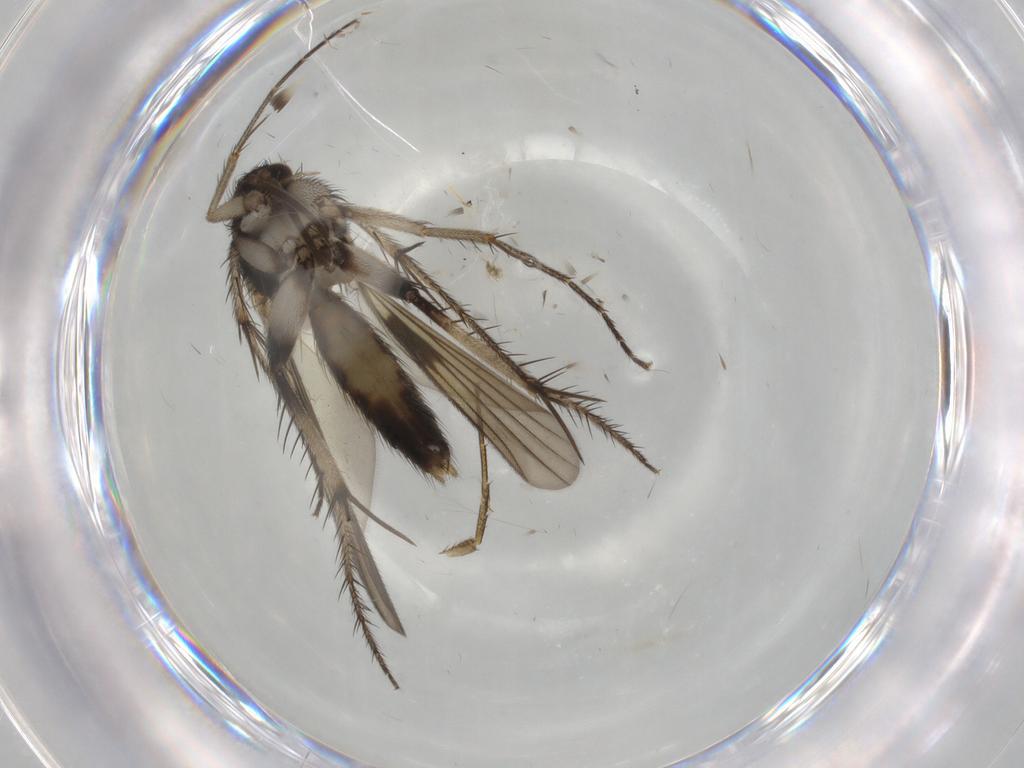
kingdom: Animalia
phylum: Arthropoda
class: Insecta
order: Diptera
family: Mycetophilidae
